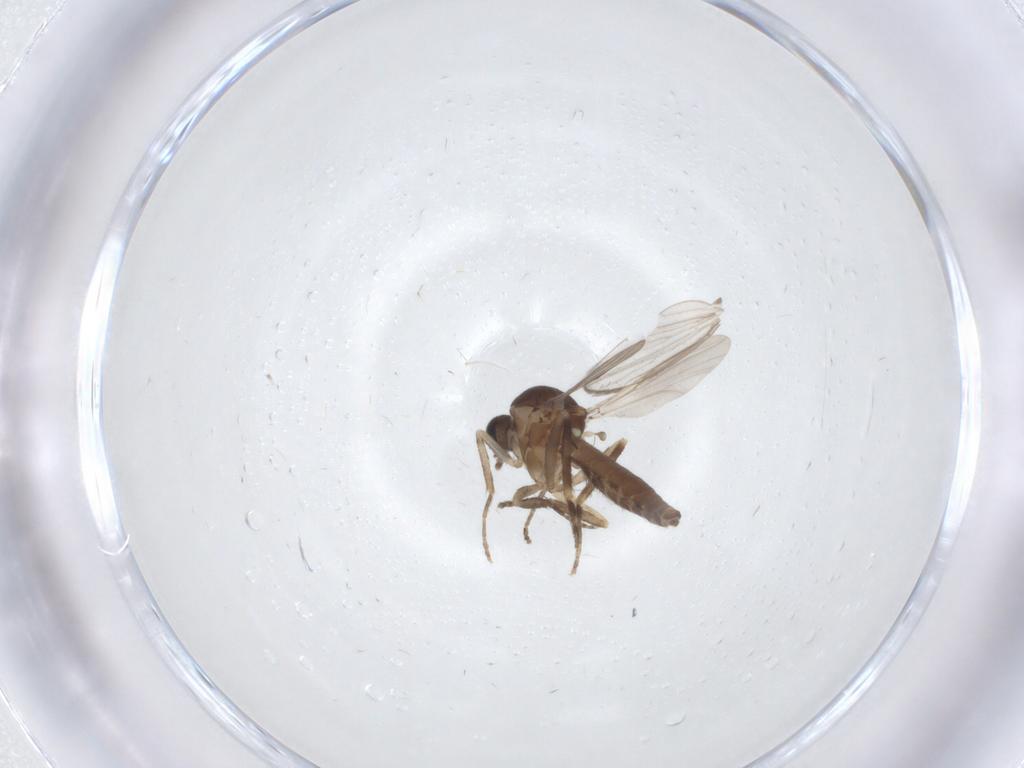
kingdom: Animalia
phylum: Arthropoda
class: Insecta
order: Diptera
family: Ceratopogonidae
